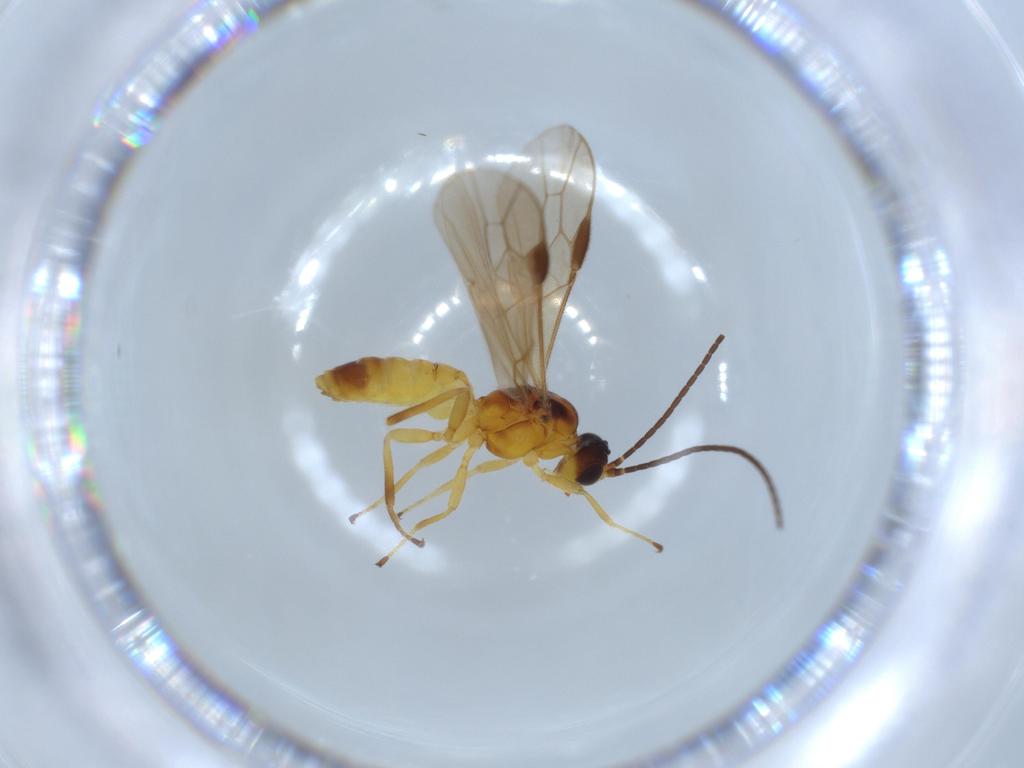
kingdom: Animalia
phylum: Arthropoda
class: Insecta
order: Hymenoptera
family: Braconidae
